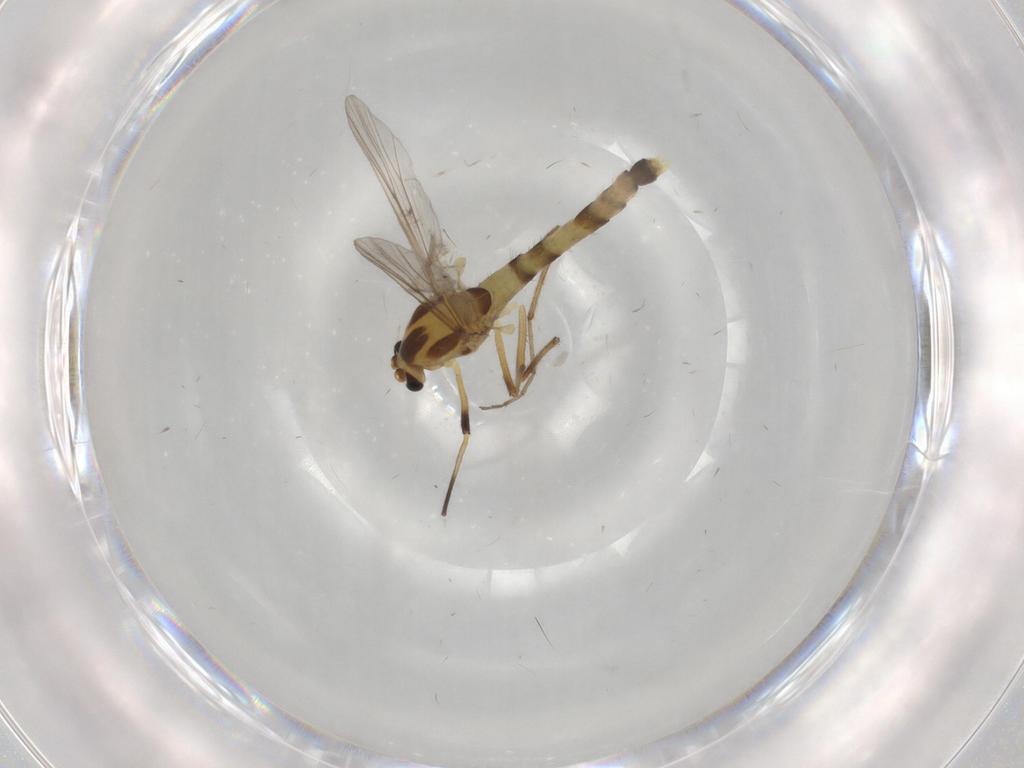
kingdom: Animalia
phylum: Arthropoda
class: Insecta
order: Diptera
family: Chironomidae
